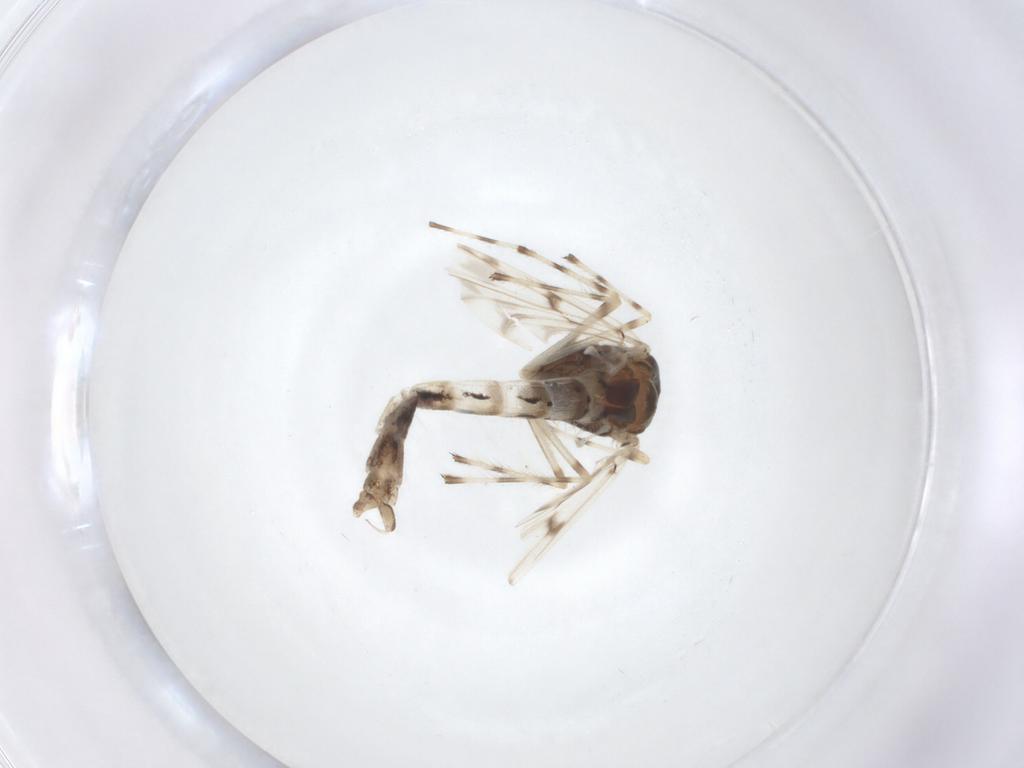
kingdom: Animalia
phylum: Arthropoda
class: Insecta
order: Diptera
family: Chironomidae
